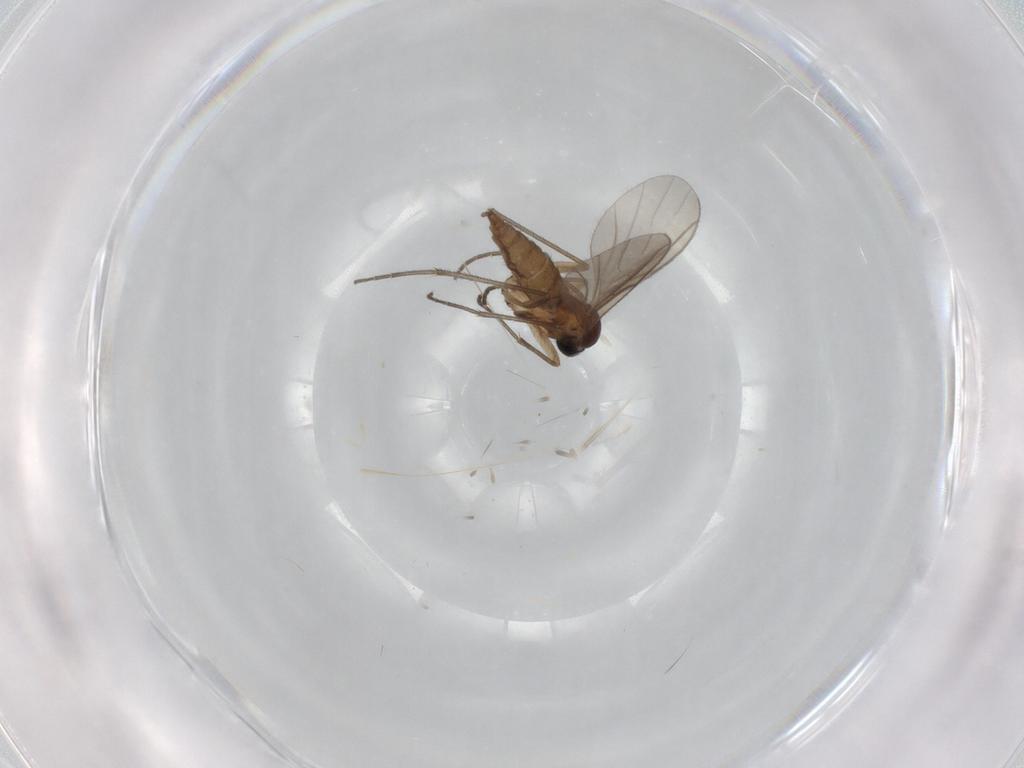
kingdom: Animalia
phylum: Arthropoda
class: Insecta
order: Diptera
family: Sciaridae
